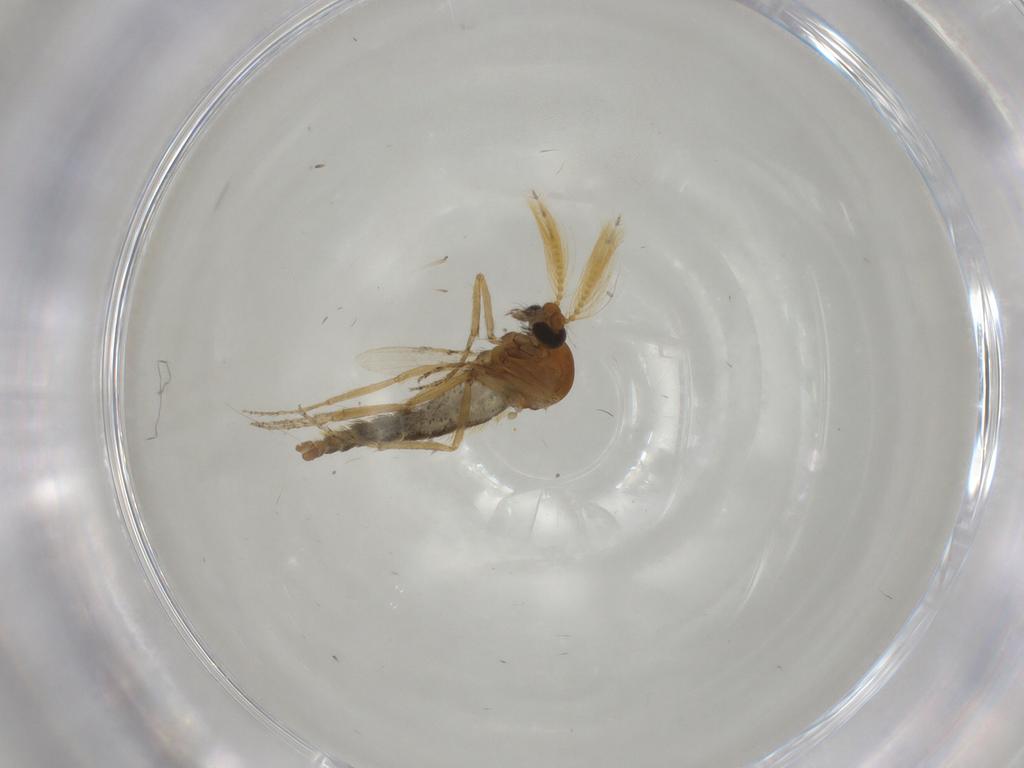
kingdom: Animalia
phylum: Arthropoda
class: Insecta
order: Diptera
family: Ceratopogonidae
